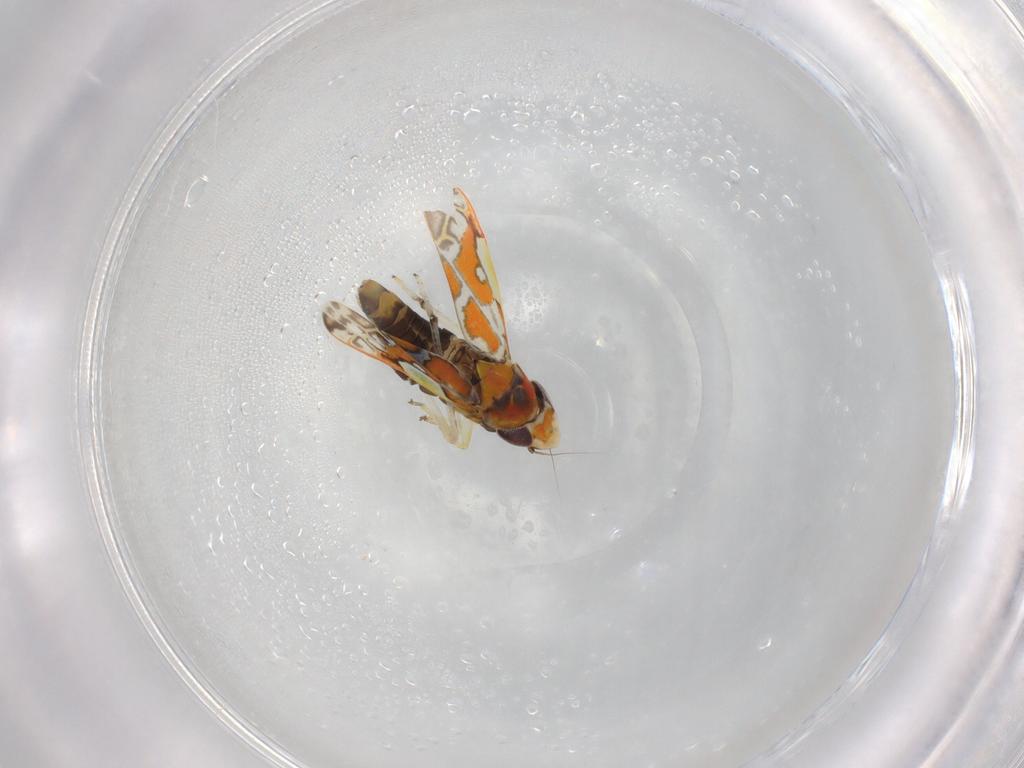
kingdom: Animalia
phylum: Arthropoda
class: Insecta
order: Hemiptera
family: Cicadellidae
